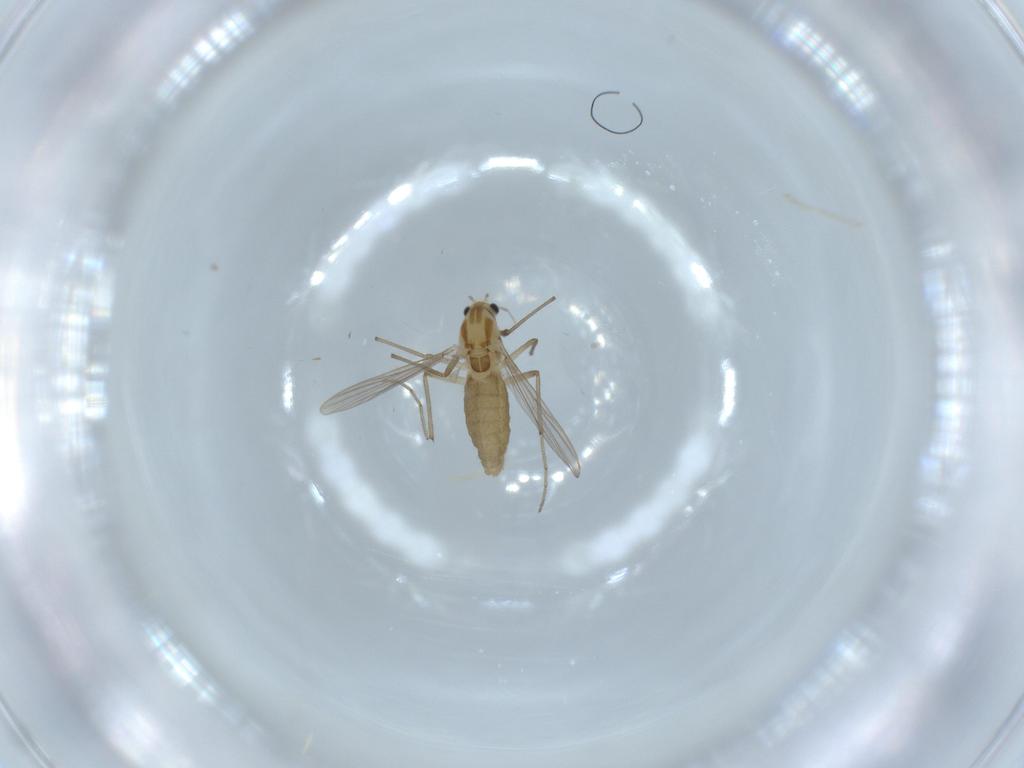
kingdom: Animalia
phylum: Arthropoda
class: Insecta
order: Diptera
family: Chironomidae
